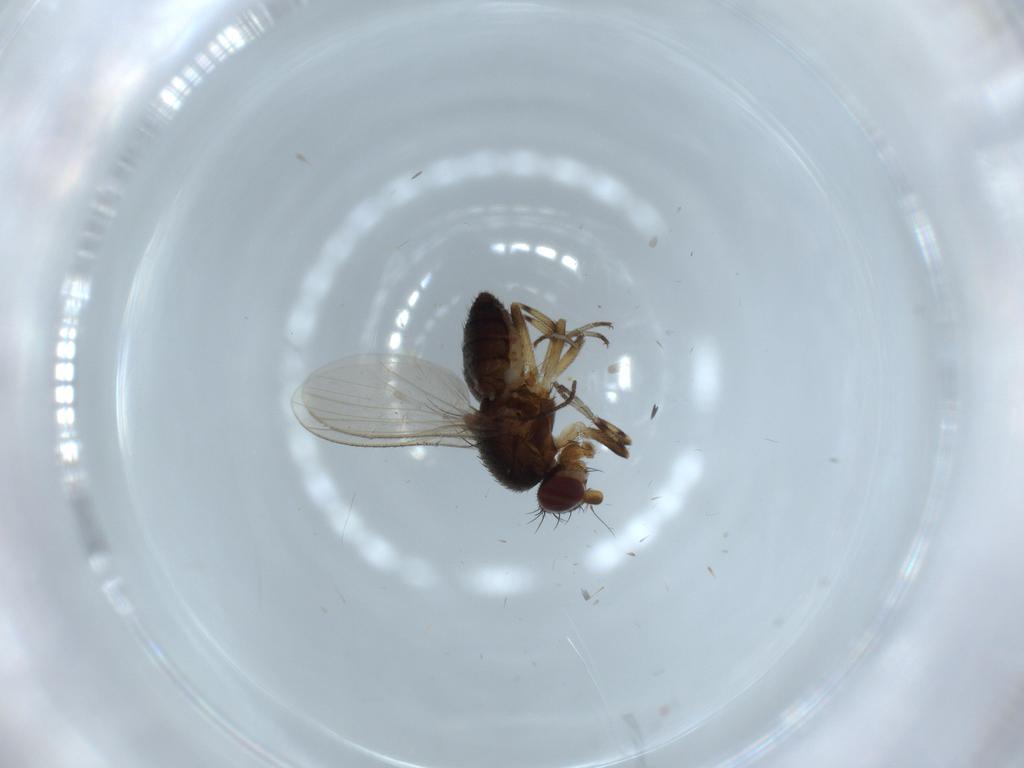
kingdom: Animalia
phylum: Arthropoda
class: Insecta
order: Diptera
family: Heleomyzidae
